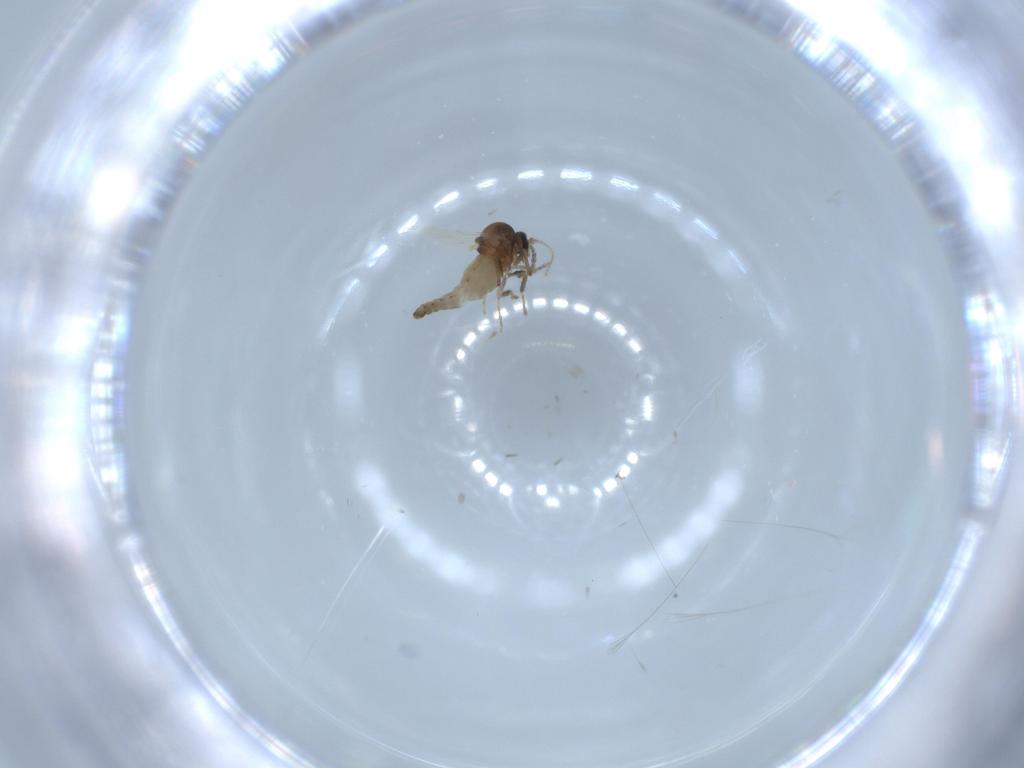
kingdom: Animalia
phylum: Arthropoda
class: Insecta
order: Diptera
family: Ceratopogonidae
